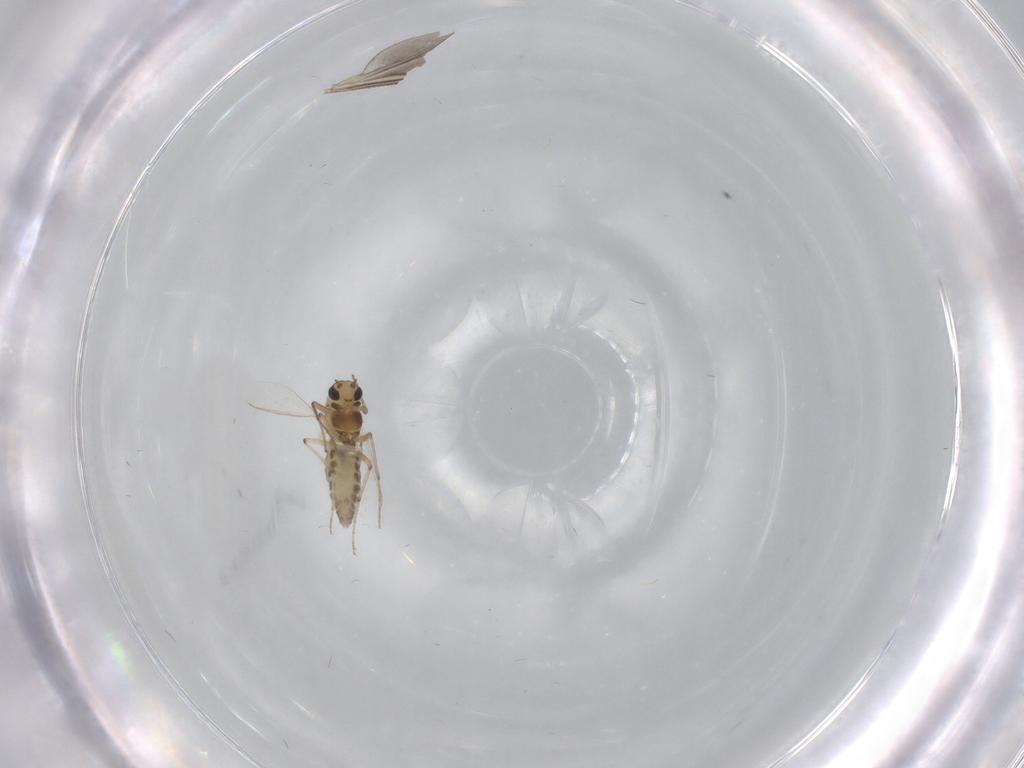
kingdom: Animalia
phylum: Arthropoda
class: Insecta
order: Diptera
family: Chironomidae
